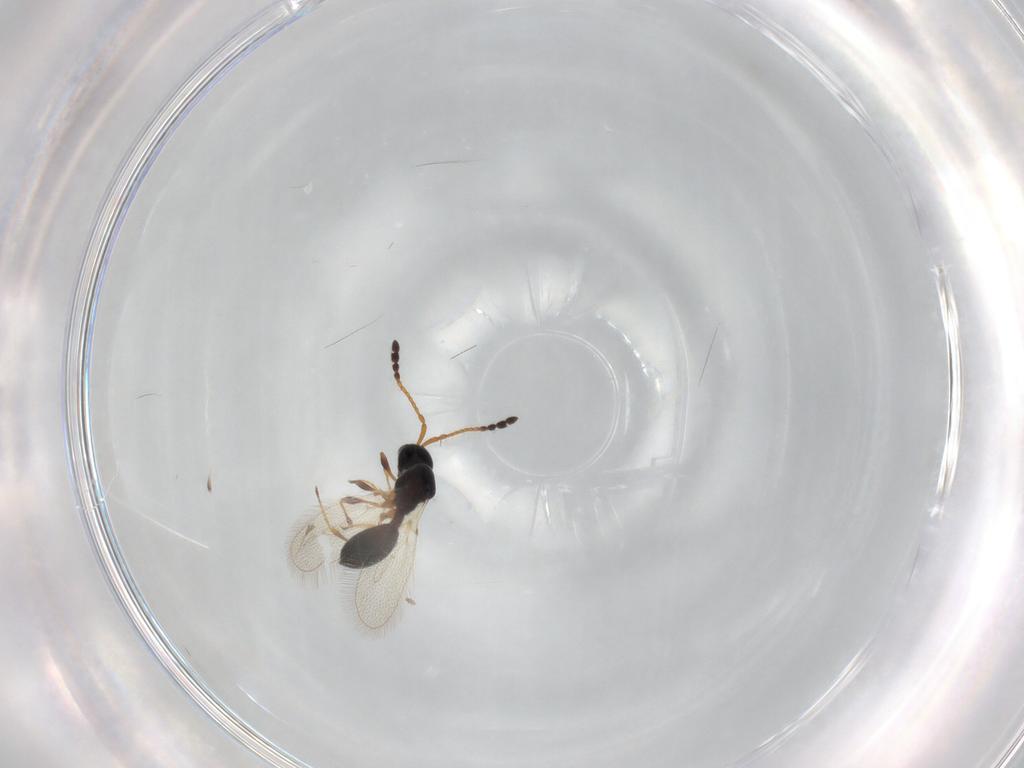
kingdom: Animalia
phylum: Arthropoda
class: Insecta
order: Hymenoptera
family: Diapriidae
